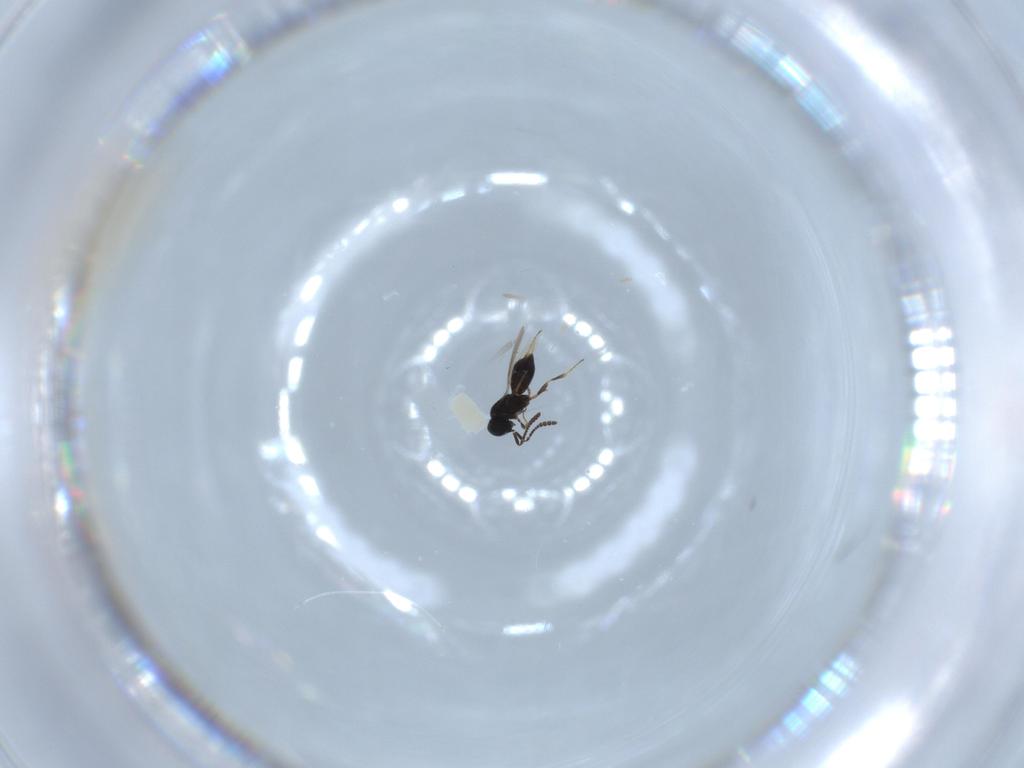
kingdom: Animalia
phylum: Arthropoda
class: Insecta
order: Hymenoptera
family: Scelionidae
